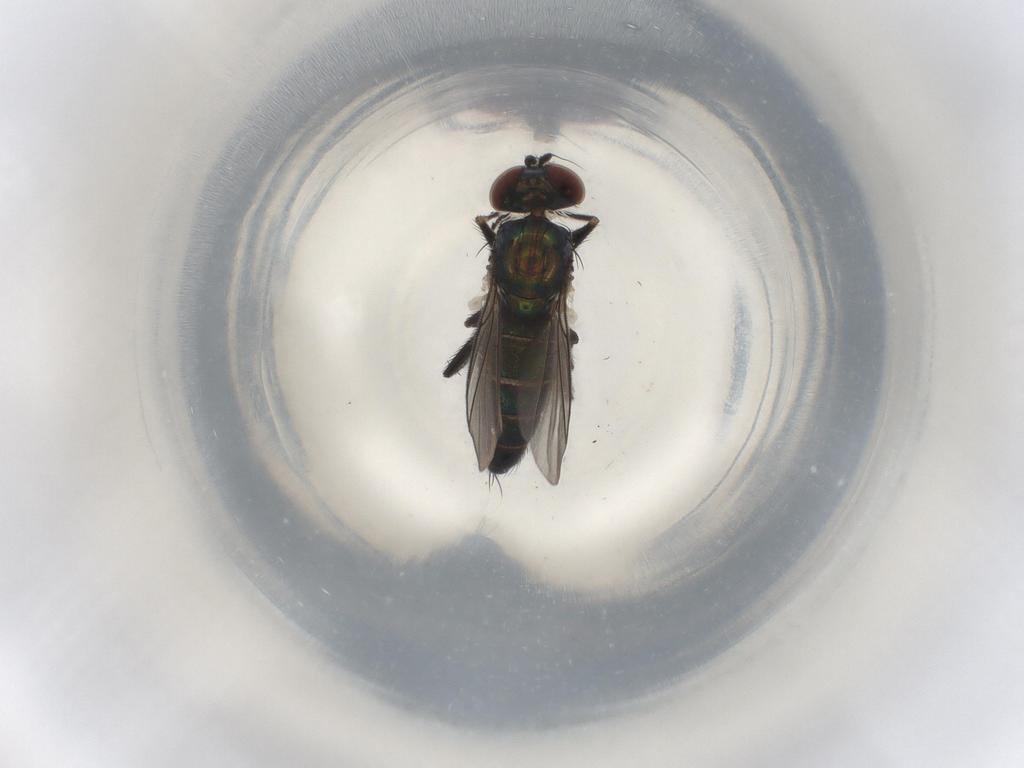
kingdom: Animalia
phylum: Arthropoda
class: Insecta
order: Diptera
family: Dolichopodidae
